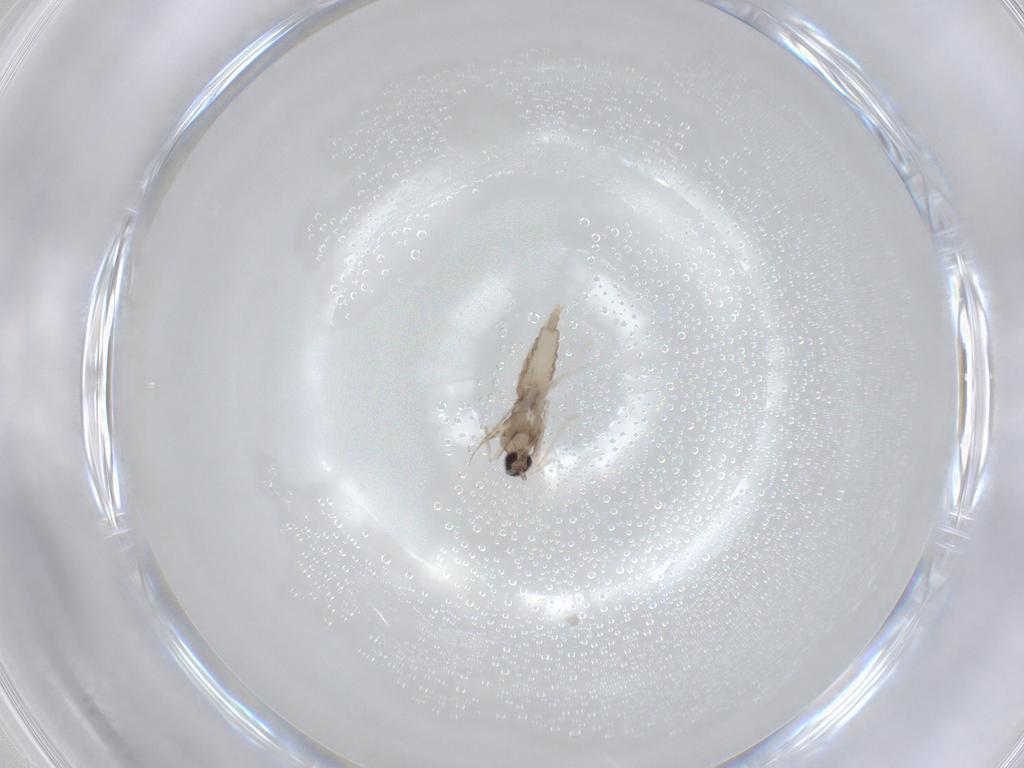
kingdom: Animalia
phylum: Arthropoda
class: Insecta
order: Diptera
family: Cecidomyiidae
